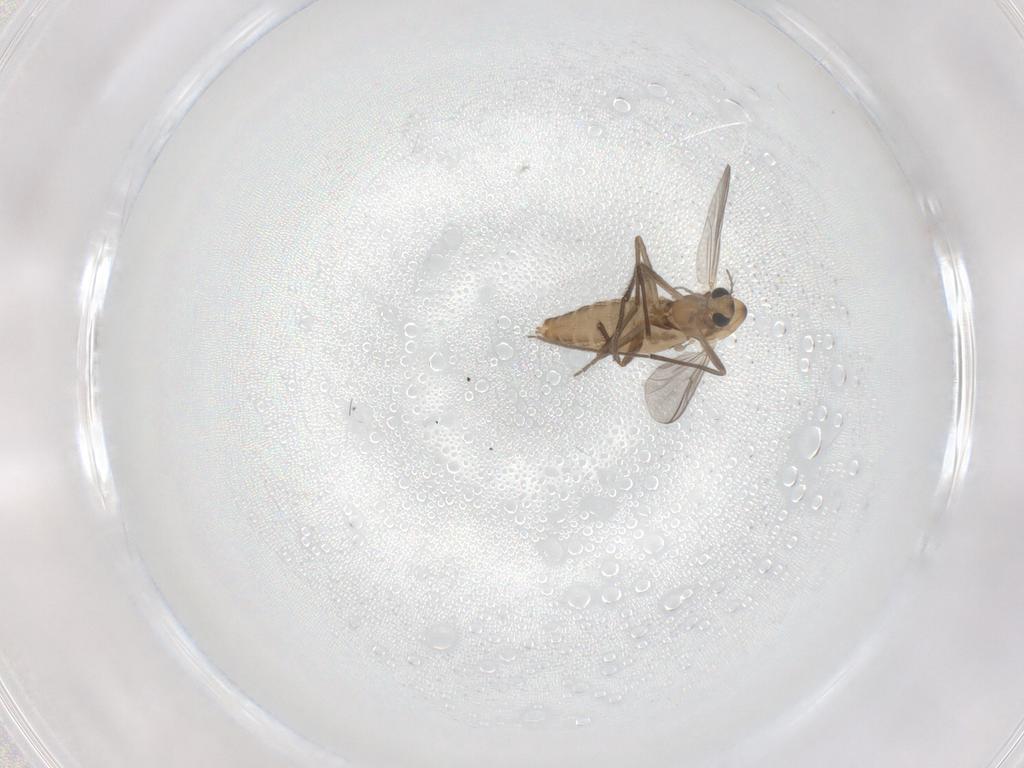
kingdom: Animalia
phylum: Arthropoda
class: Insecta
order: Diptera
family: Chironomidae
